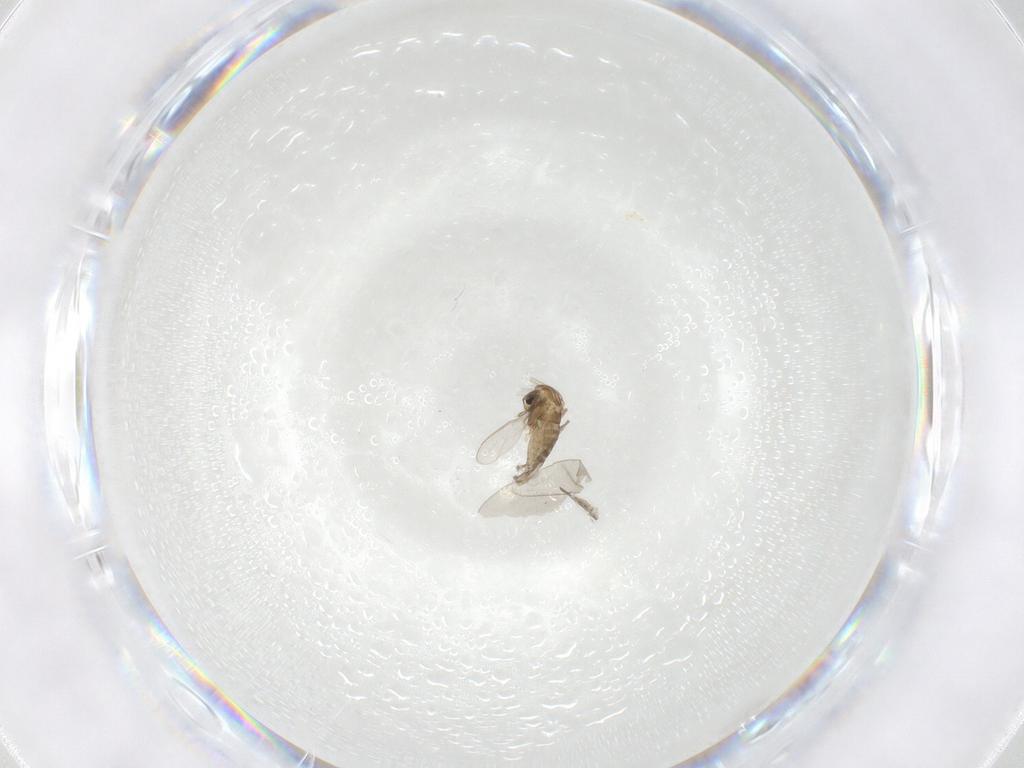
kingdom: Animalia
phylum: Arthropoda
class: Insecta
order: Diptera
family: Chironomidae
